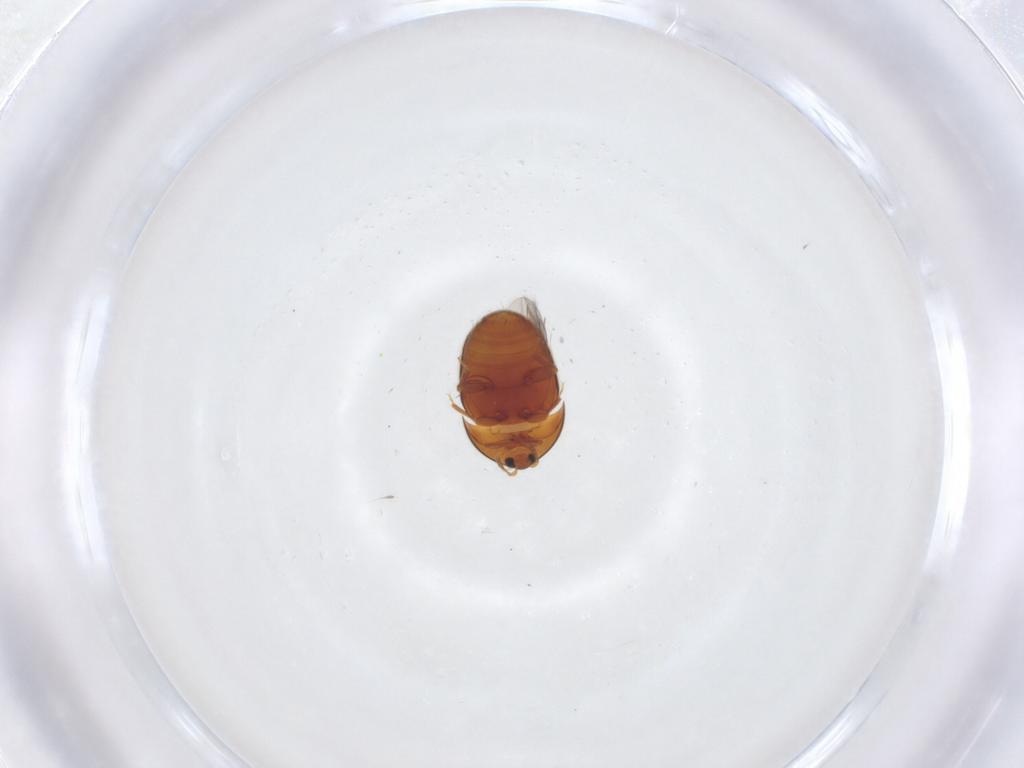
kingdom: Animalia
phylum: Arthropoda
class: Insecta
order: Coleoptera
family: Corylophidae
